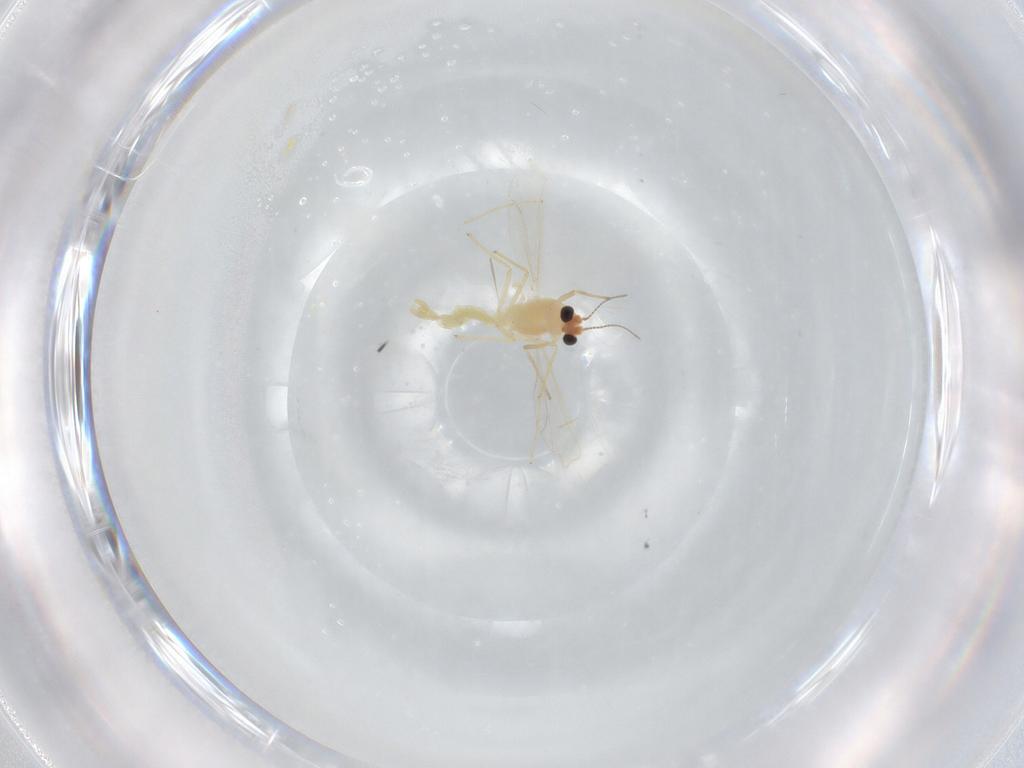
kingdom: Animalia
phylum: Arthropoda
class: Insecta
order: Diptera
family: Chironomidae
